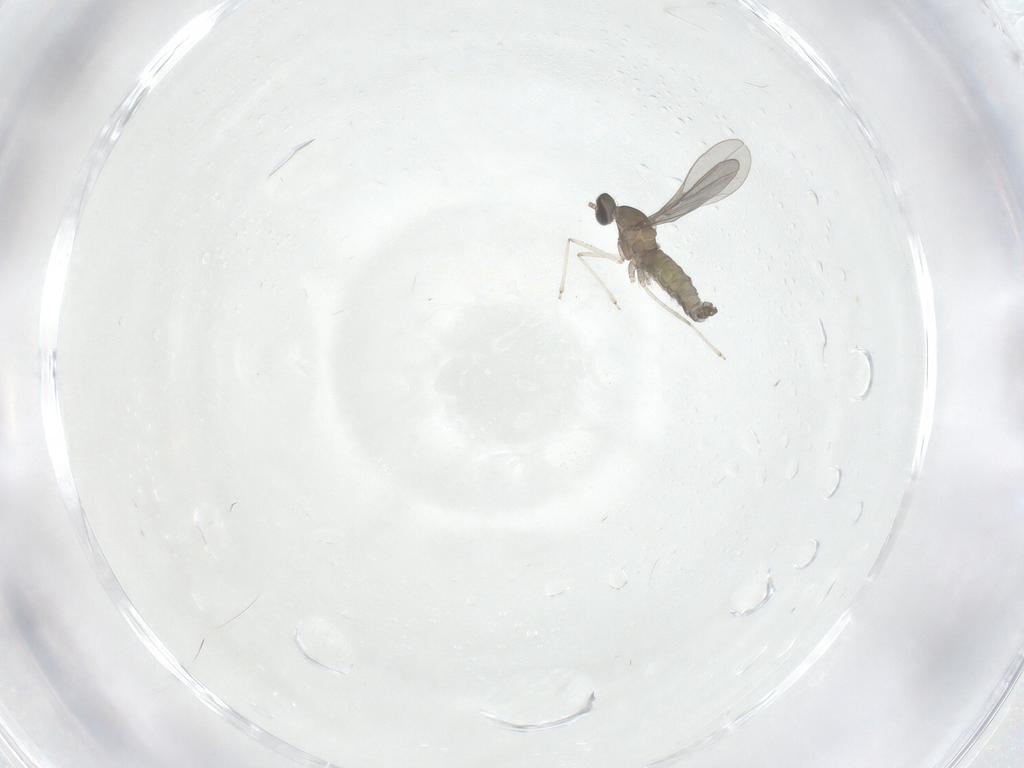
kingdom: Animalia
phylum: Arthropoda
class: Insecta
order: Diptera
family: Cecidomyiidae
